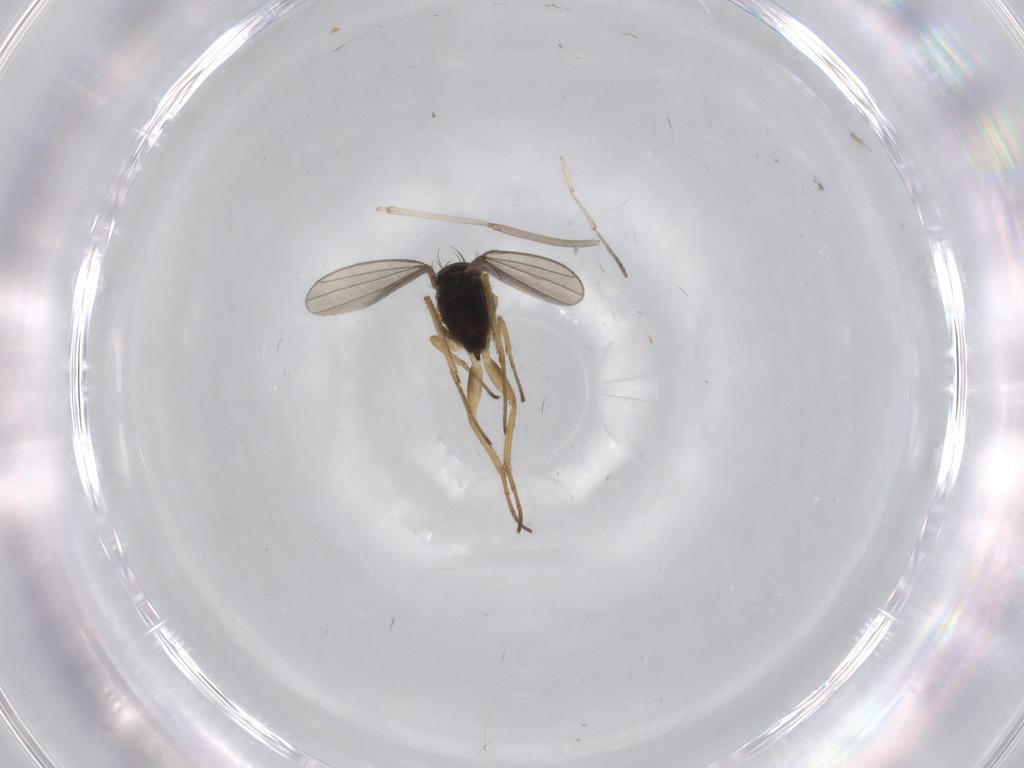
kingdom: Animalia
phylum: Arthropoda
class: Insecta
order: Diptera
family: Dolichopodidae
